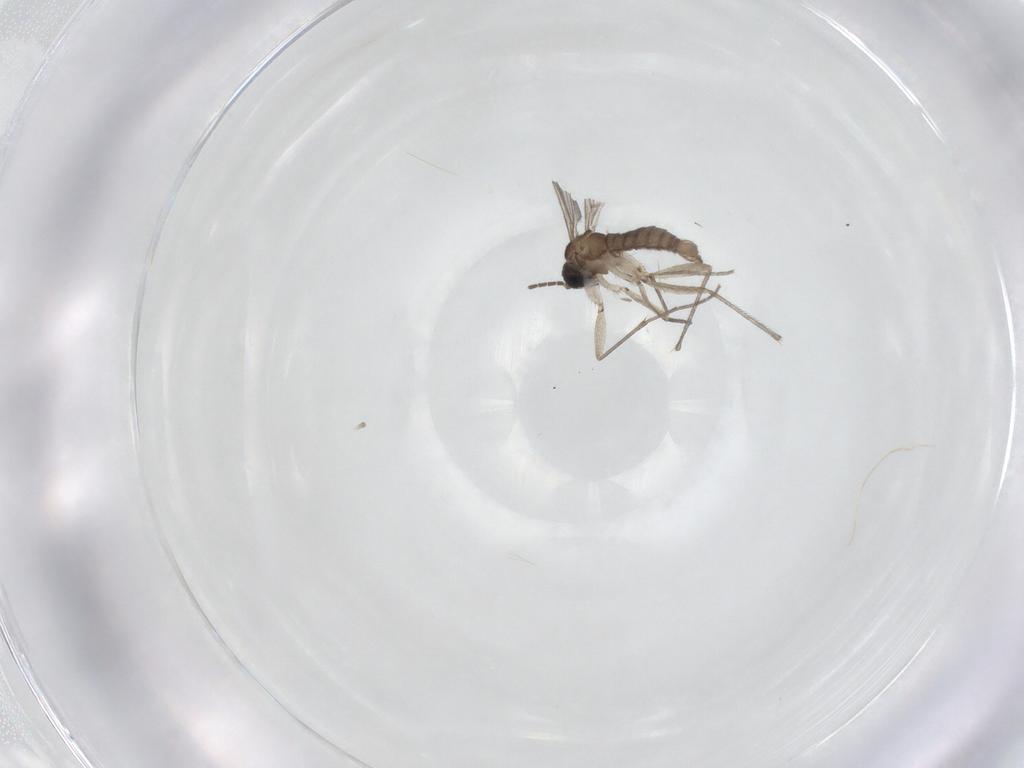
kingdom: Animalia
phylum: Arthropoda
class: Insecta
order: Diptera
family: Sciaridae
